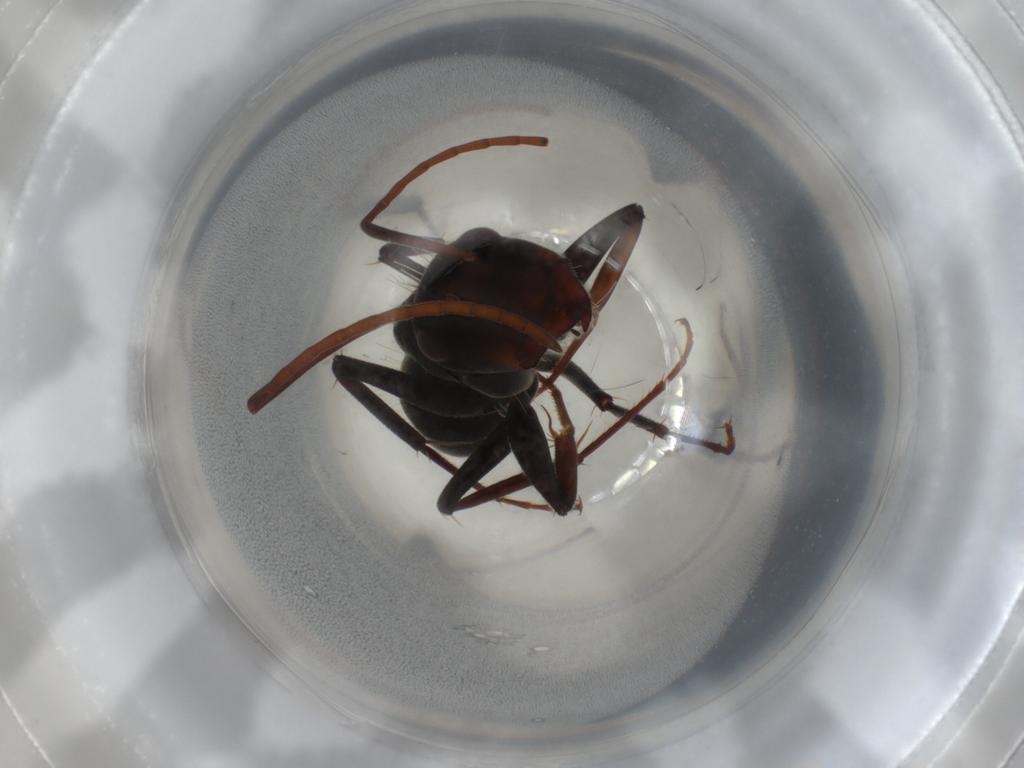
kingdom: Animalia
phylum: Arthropoda
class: Insecta
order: Hymenoptera
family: Formicidae
